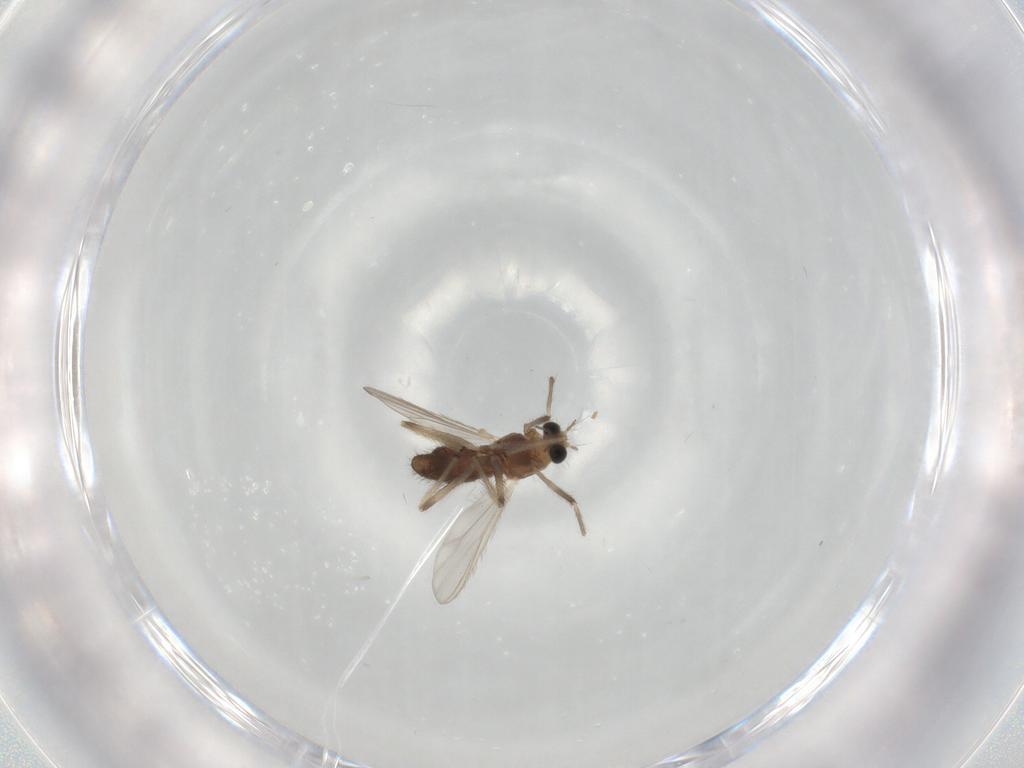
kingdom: Animalia
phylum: Arthropoda
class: Insecta
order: Diptera
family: Chironomidae
